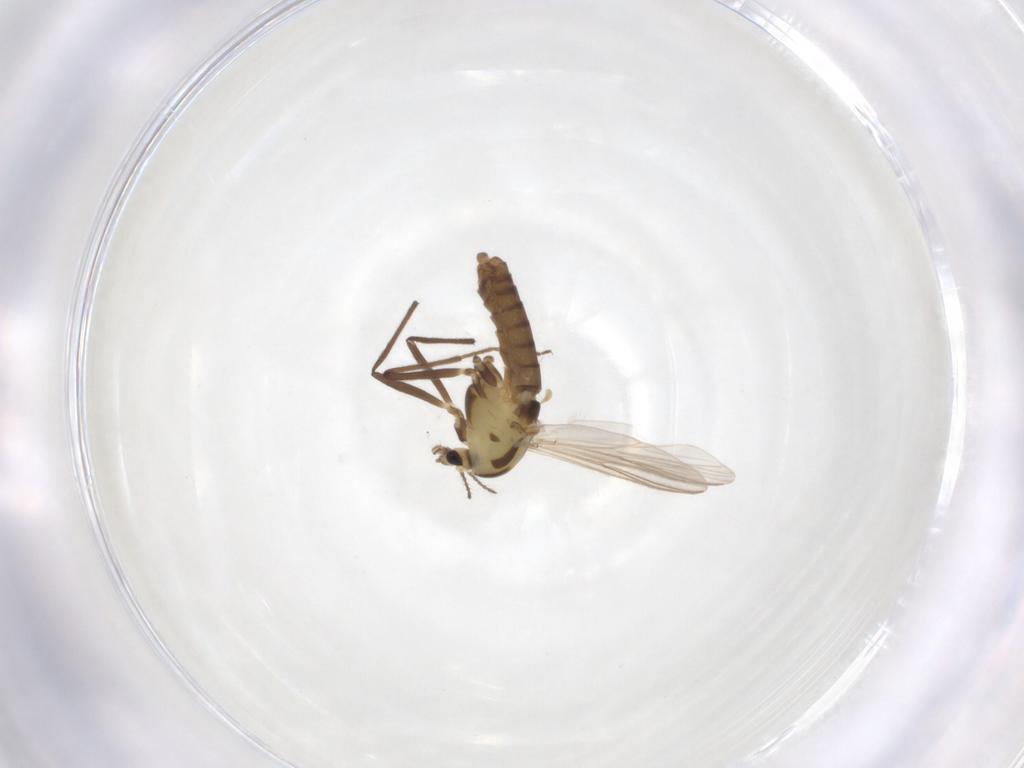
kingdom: Animalia
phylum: Arthropoda
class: Insecta
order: Diptera
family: Chironomidae
